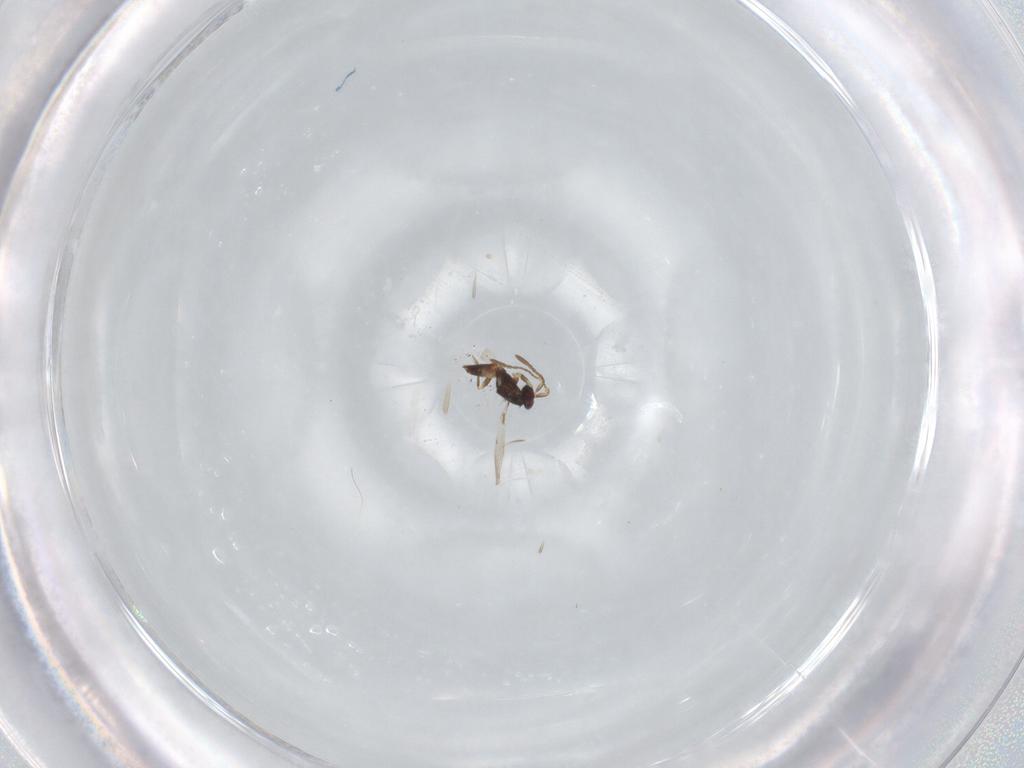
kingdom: Animalia
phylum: Arthropoda
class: Insecta
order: Hymenoptera
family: Mymaridae
